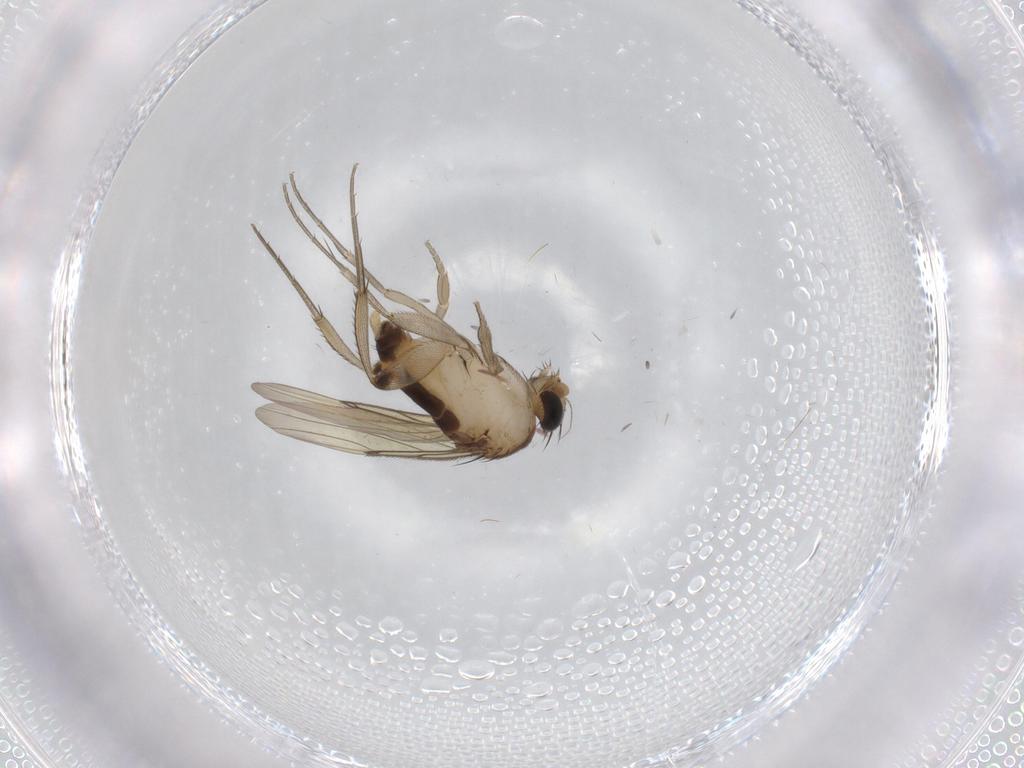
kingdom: Animalia
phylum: Arthropoda
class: Insecta
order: Diptera
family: Phoridae
